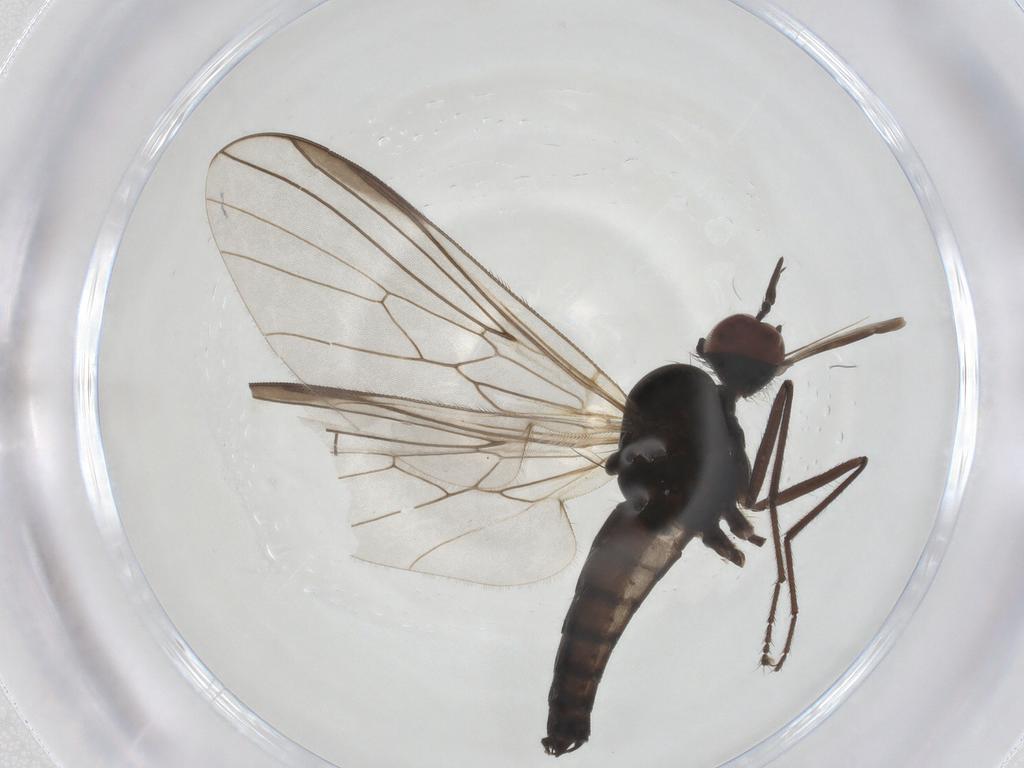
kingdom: Animalia
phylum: Arthropoda
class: Insecta
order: Diptera
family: Empididae
